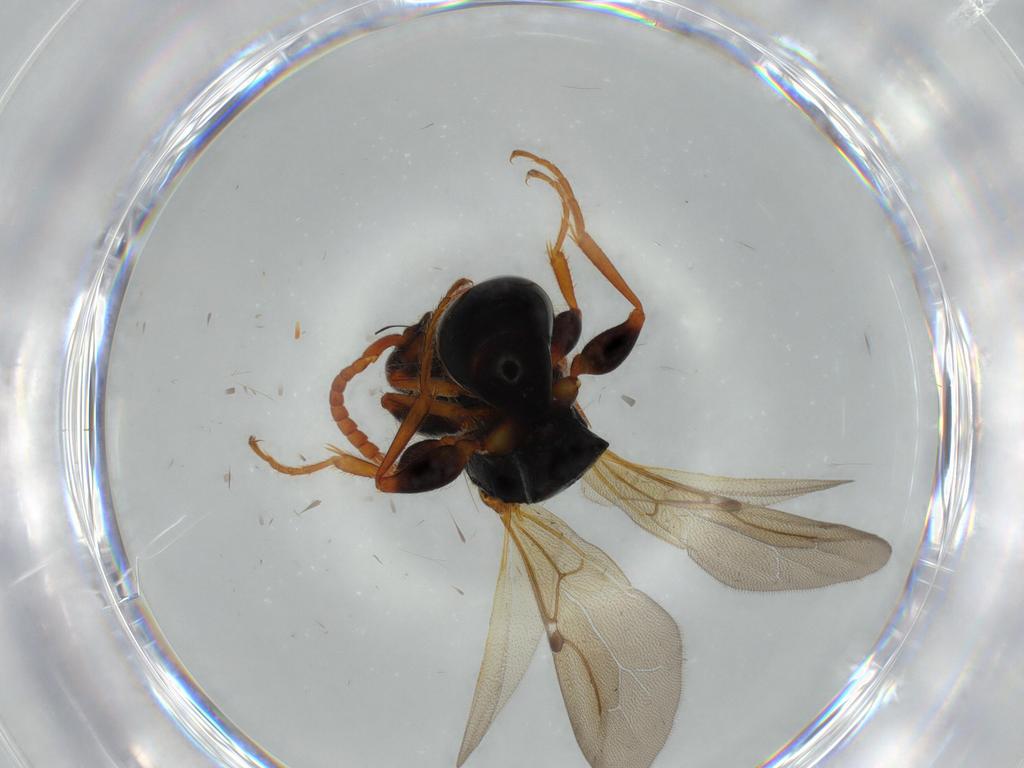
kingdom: Animalia
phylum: Arthropoda
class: Insecta
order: Hymenoptera
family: Bethylidae
